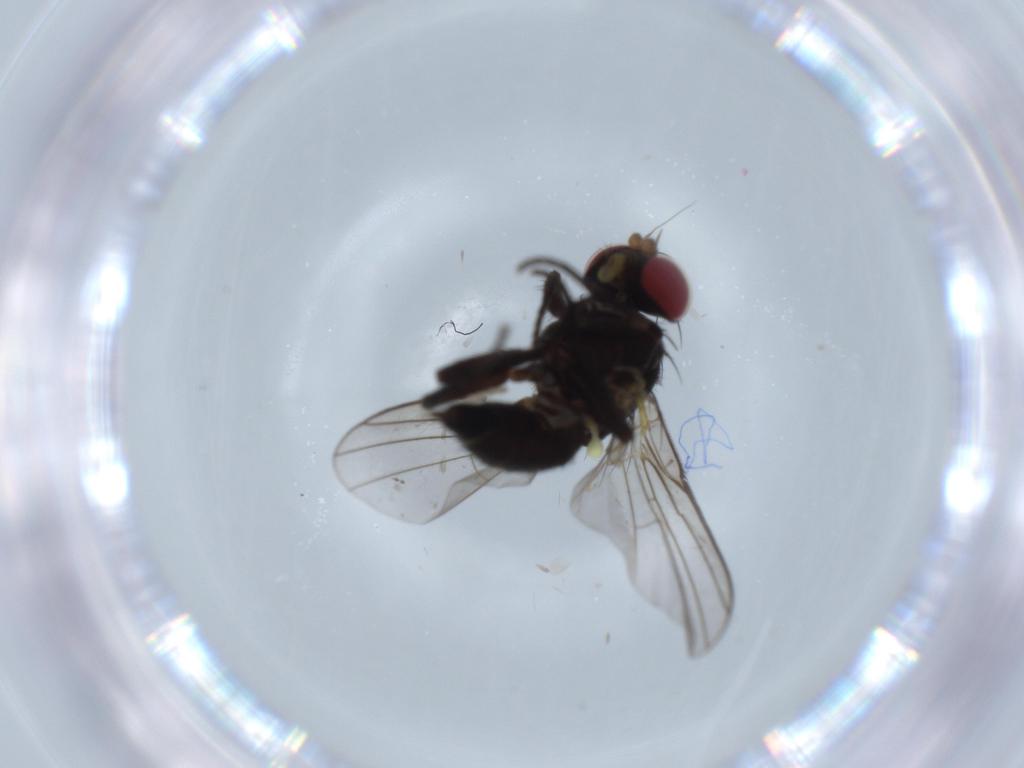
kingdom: Animalia
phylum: Arthropoda
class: Insecta
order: Diptera
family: Agromyzidae
